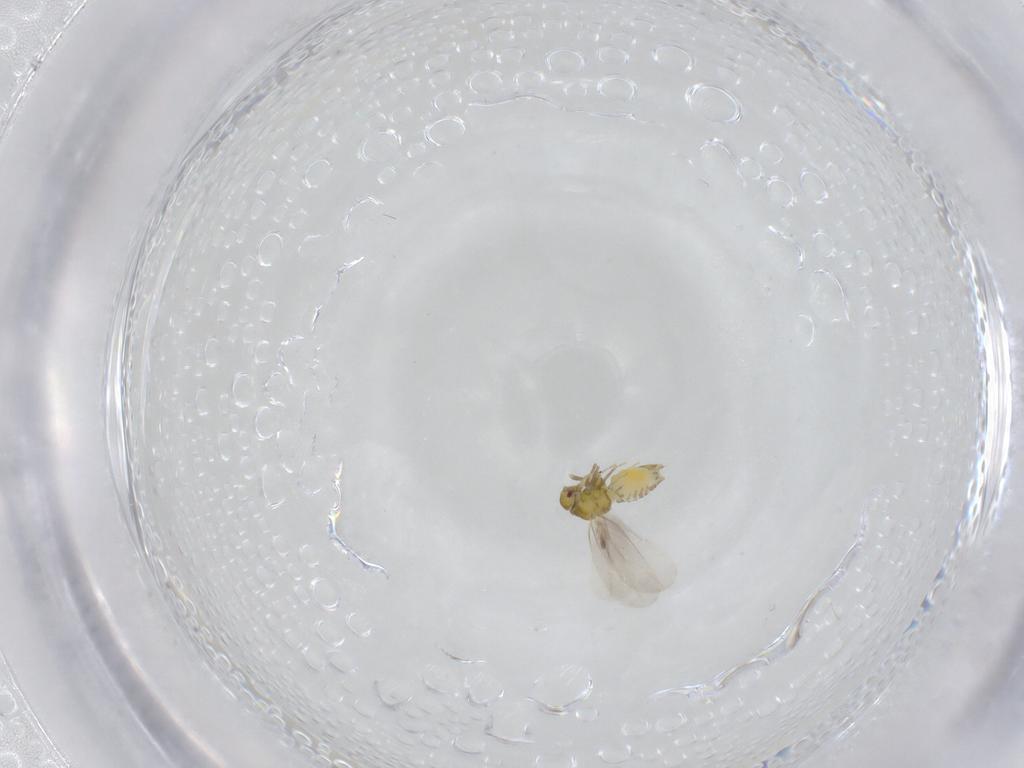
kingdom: Animalia
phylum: Arthropoda
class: Insecta
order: Hemiptera
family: Aleyrodidae
